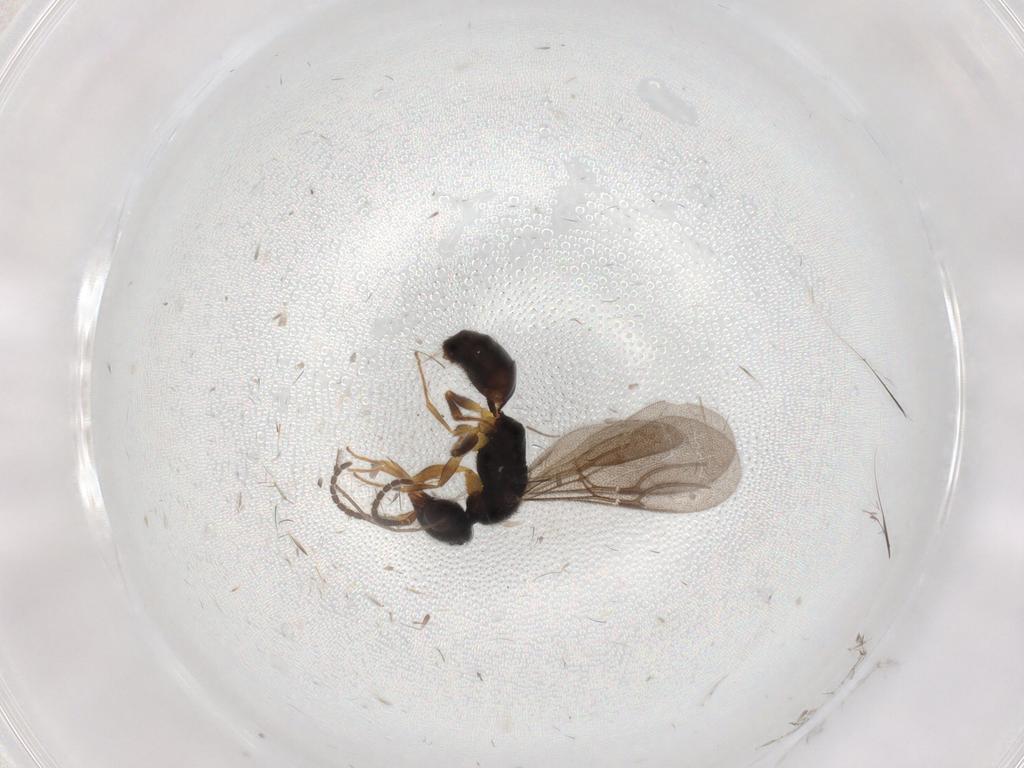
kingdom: Animalia
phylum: Arthropoda
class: Insecta
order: Hymenoptera
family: Bethylidae
